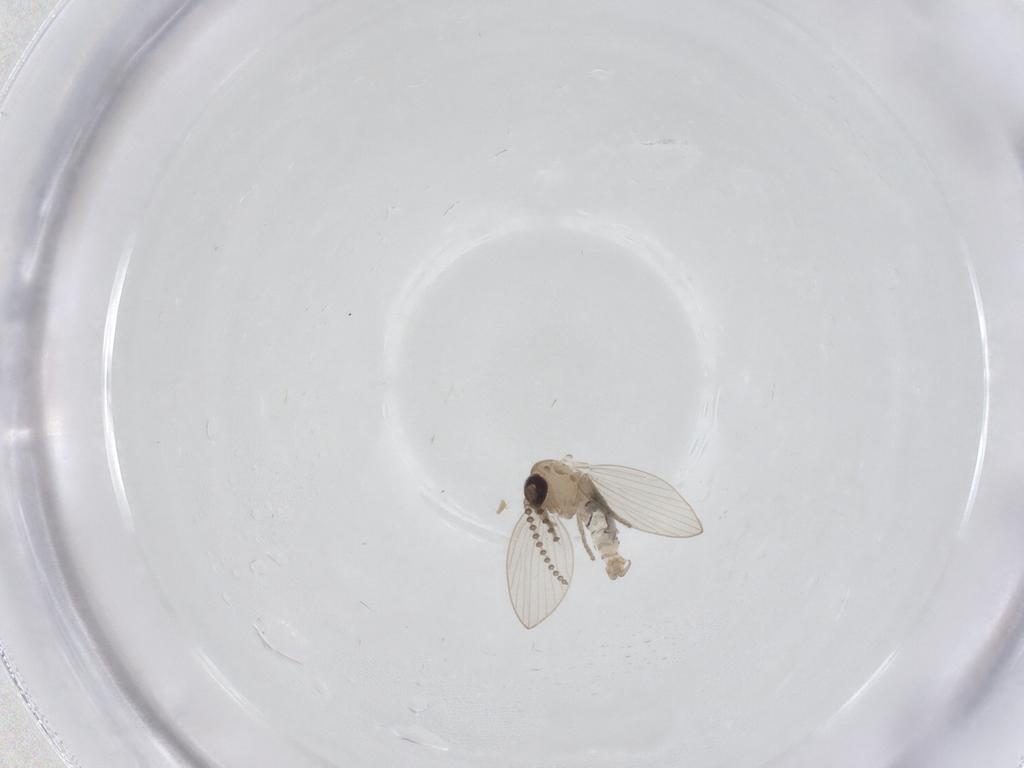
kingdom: Animalia
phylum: Arthropoda
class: Insecta
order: Diptera
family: Psychodidae
